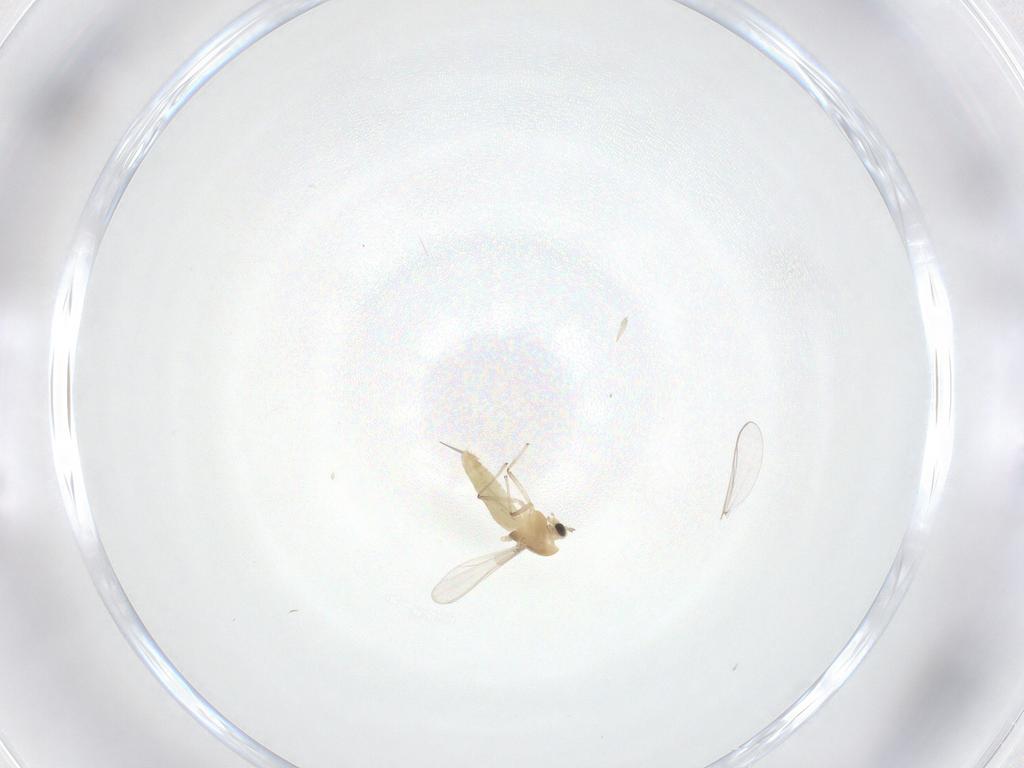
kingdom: Animalia
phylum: Arthropoda
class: Insecta
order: Diptera
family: Chironomidae
